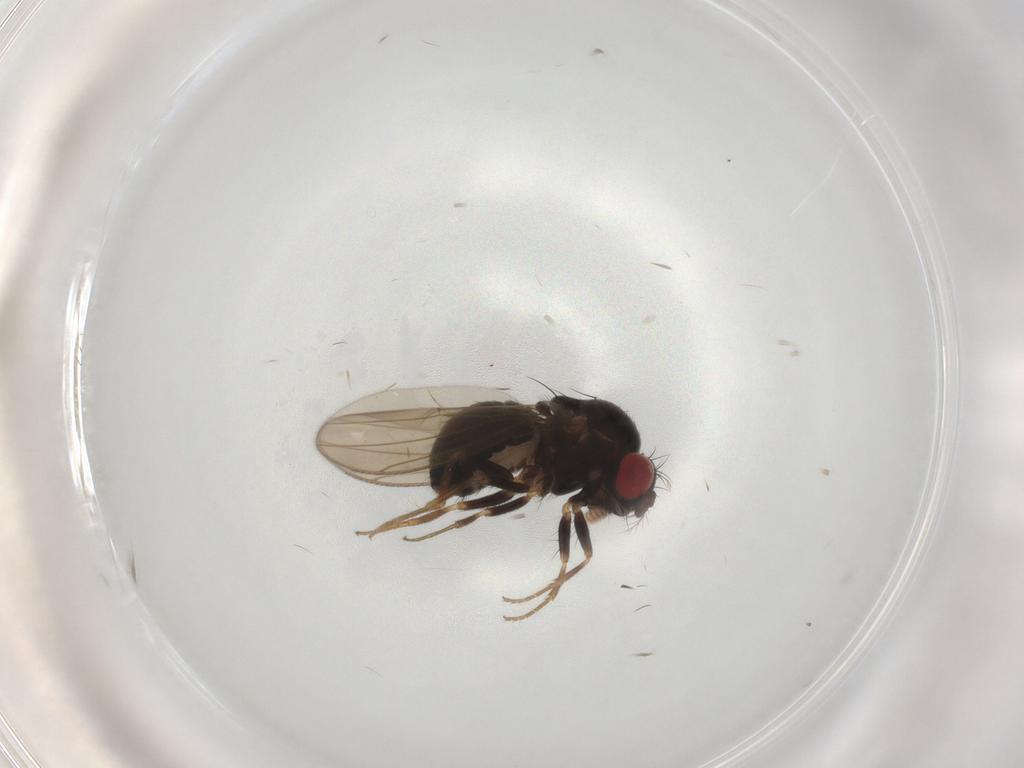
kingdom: Animalia
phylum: Arthropoda
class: Insecta
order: Diptera
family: Drosophilidae
